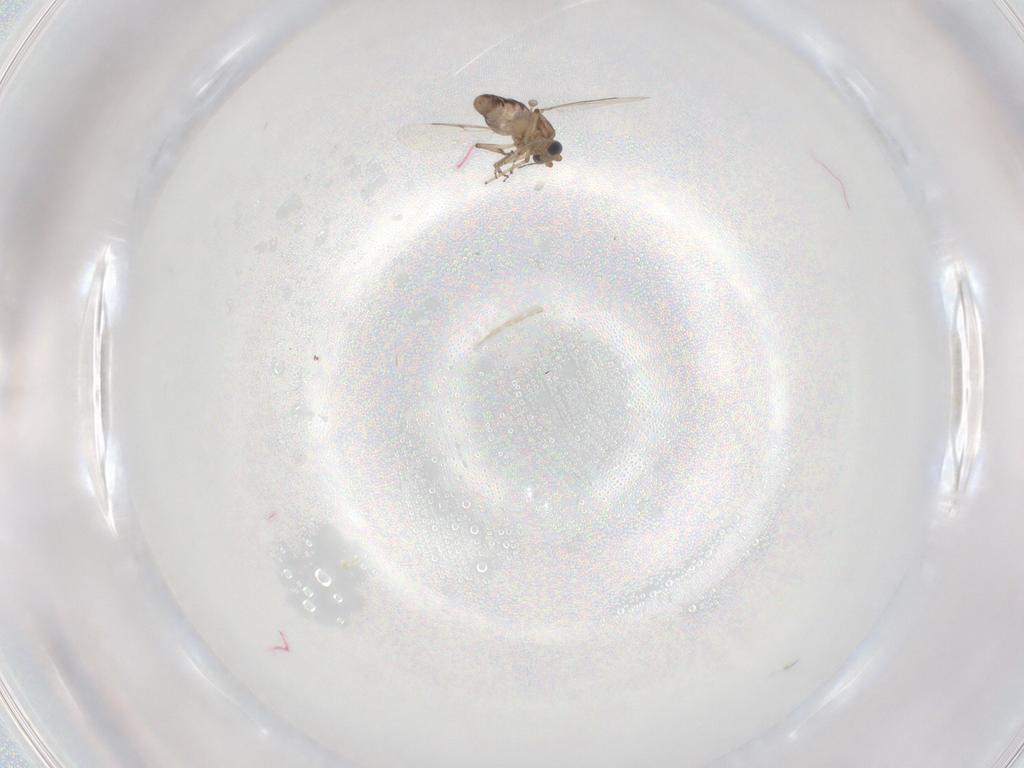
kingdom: Animalia
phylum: Arthropoda
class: Insecta
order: Diptera
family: Ceratopogonidae
